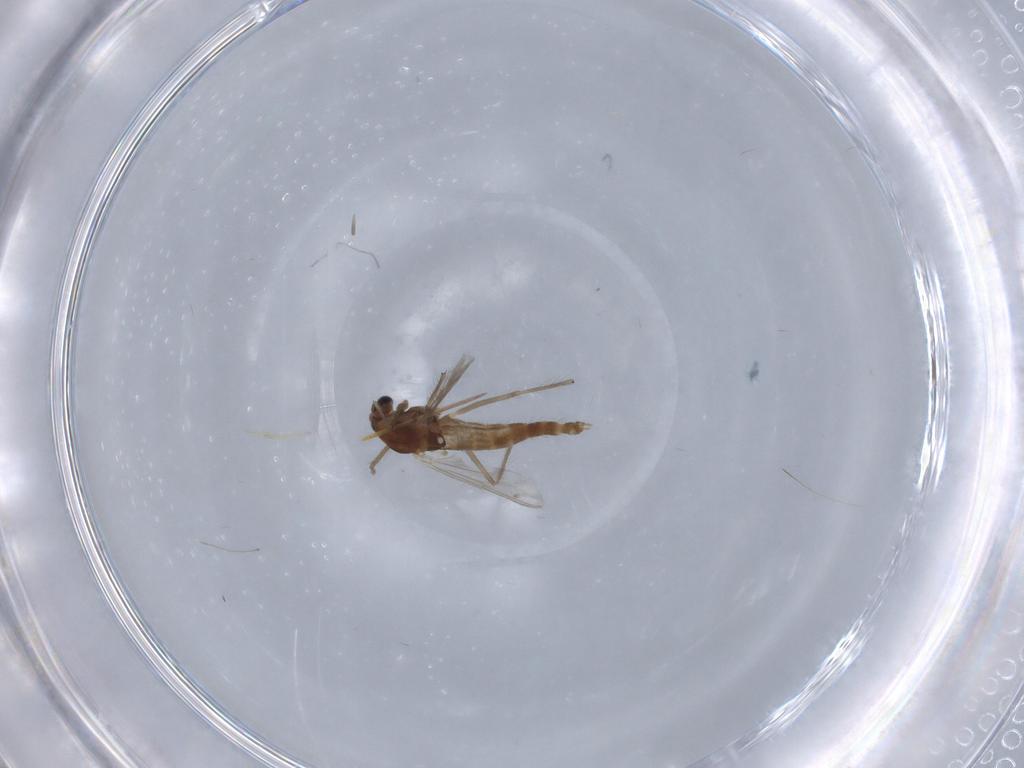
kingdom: Animalia
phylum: Arthropoda
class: Insecta
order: Diptera
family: Chironomidae
